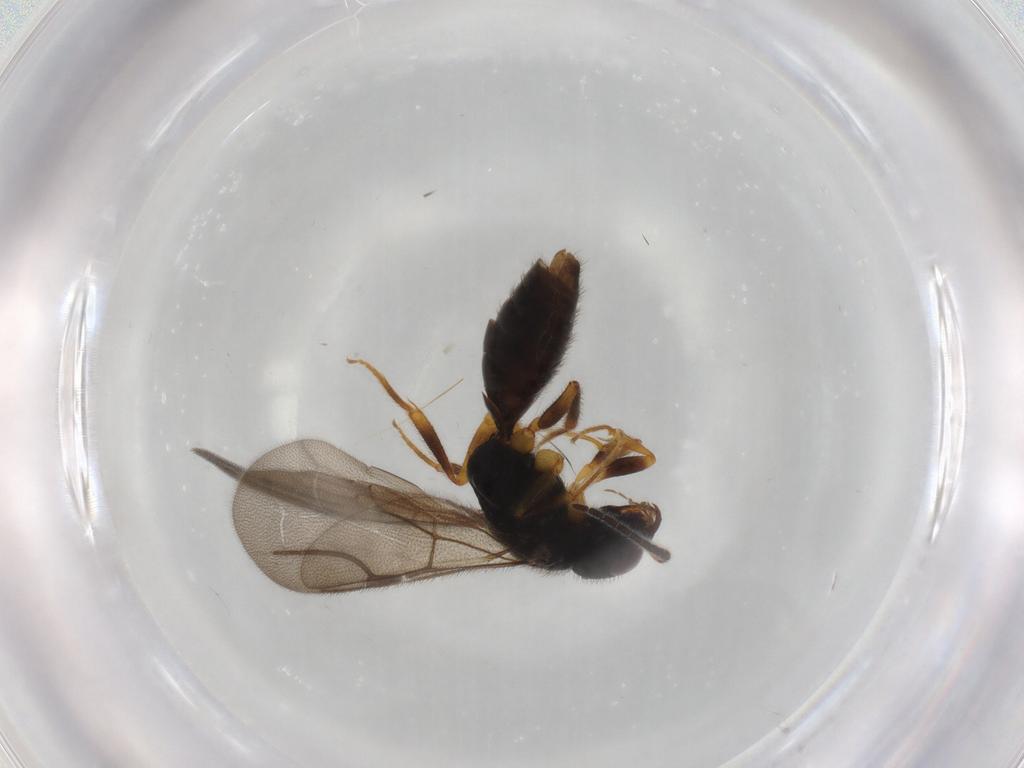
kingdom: Animalia
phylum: Arthropoda
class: Insecta
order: Hymenoptera
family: Bethylidae
